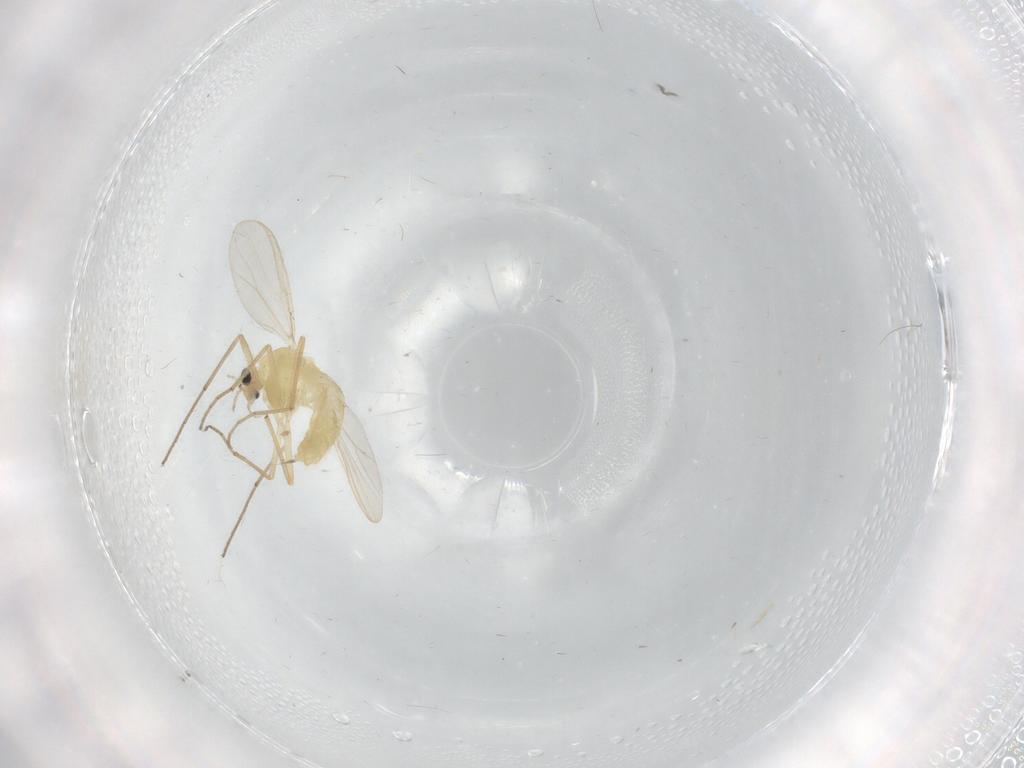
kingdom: Animalia
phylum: Arthropoda
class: Insecta
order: Diptera
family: Chironomidae
